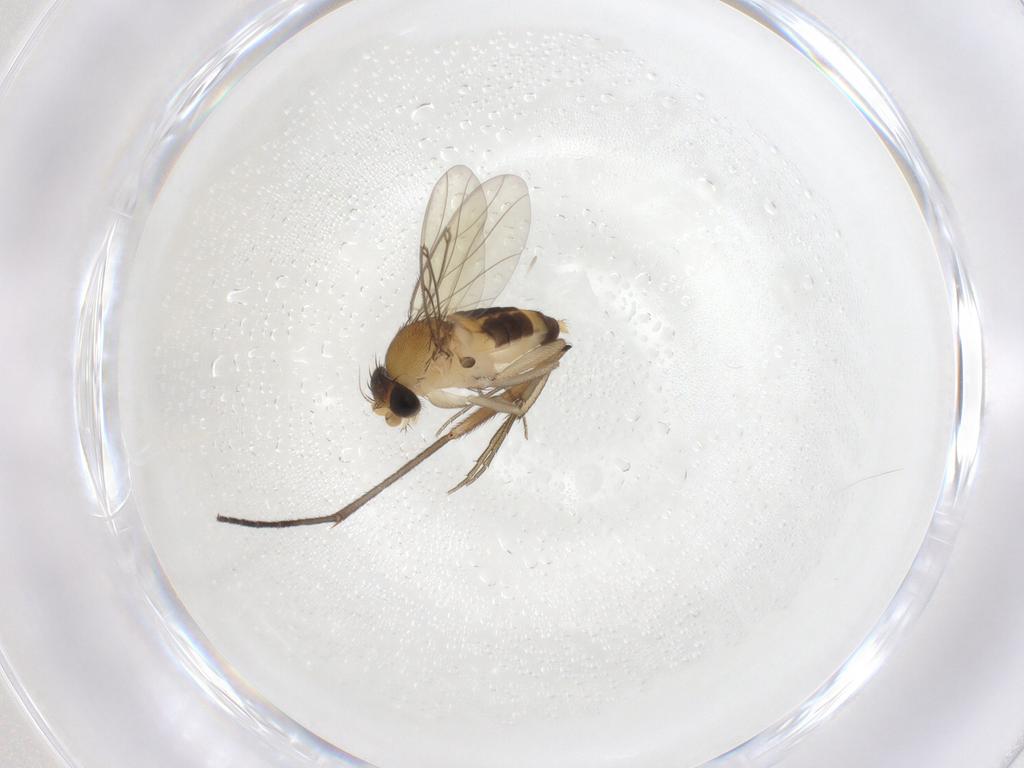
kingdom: Animalia
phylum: Arthropoda
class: Insecta
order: Diptera
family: Phoridae
